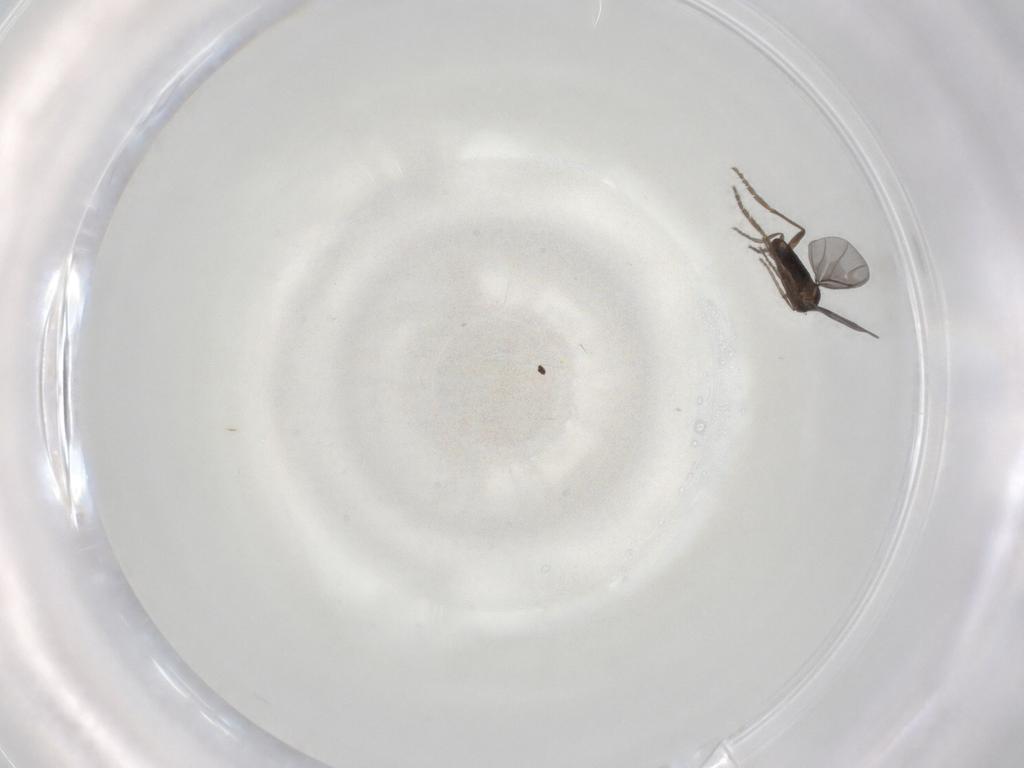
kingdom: Animalia
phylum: Arthropoda
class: Insecta
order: Diptera
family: Phoridae
